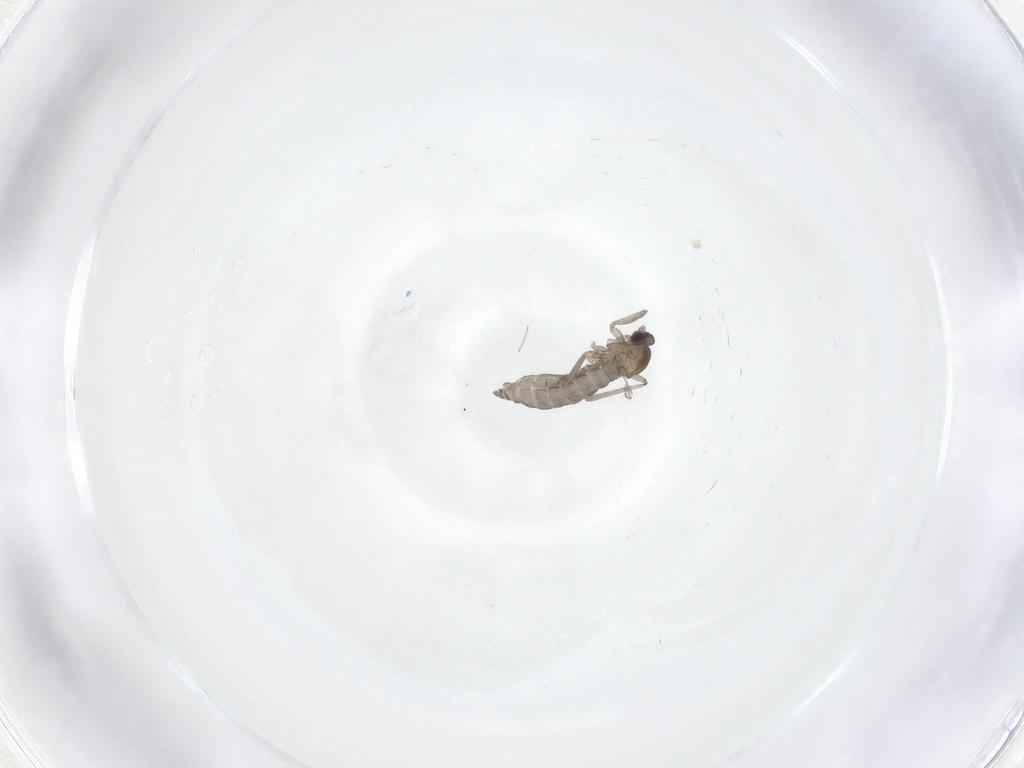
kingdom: Animalia
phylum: Arthropoda
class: Insecta
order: Diptera
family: Cecidomyiidae
